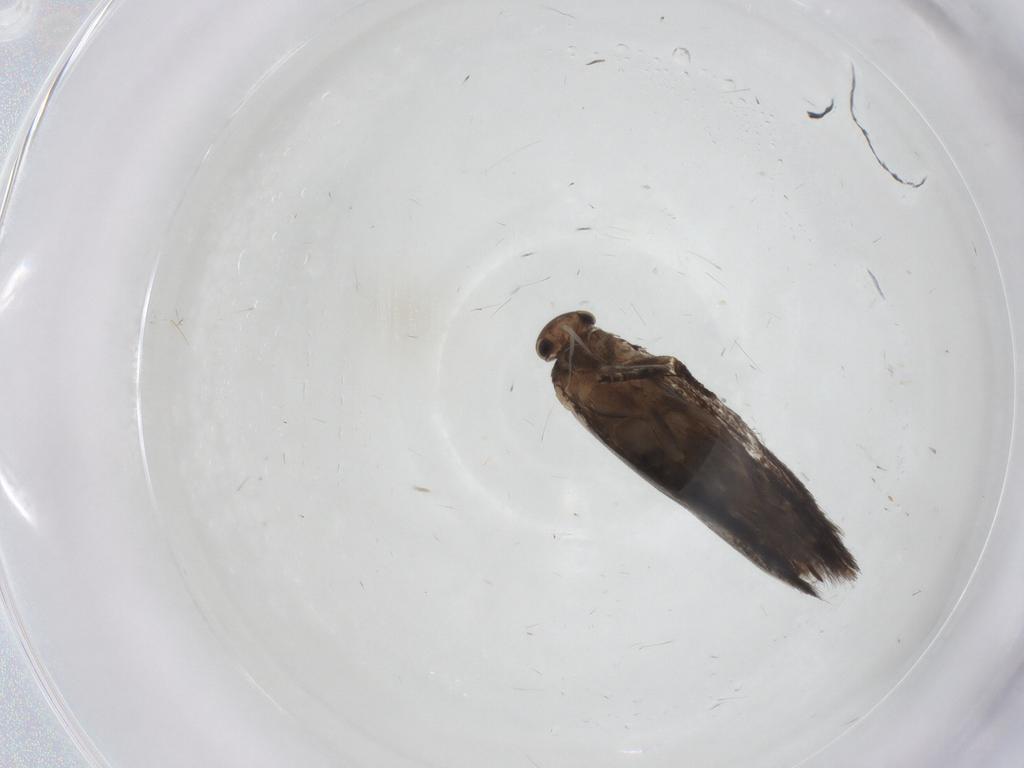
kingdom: Animalia
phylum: Arthropoda
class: Insecta
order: Lepidoptera
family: Elachistidae
